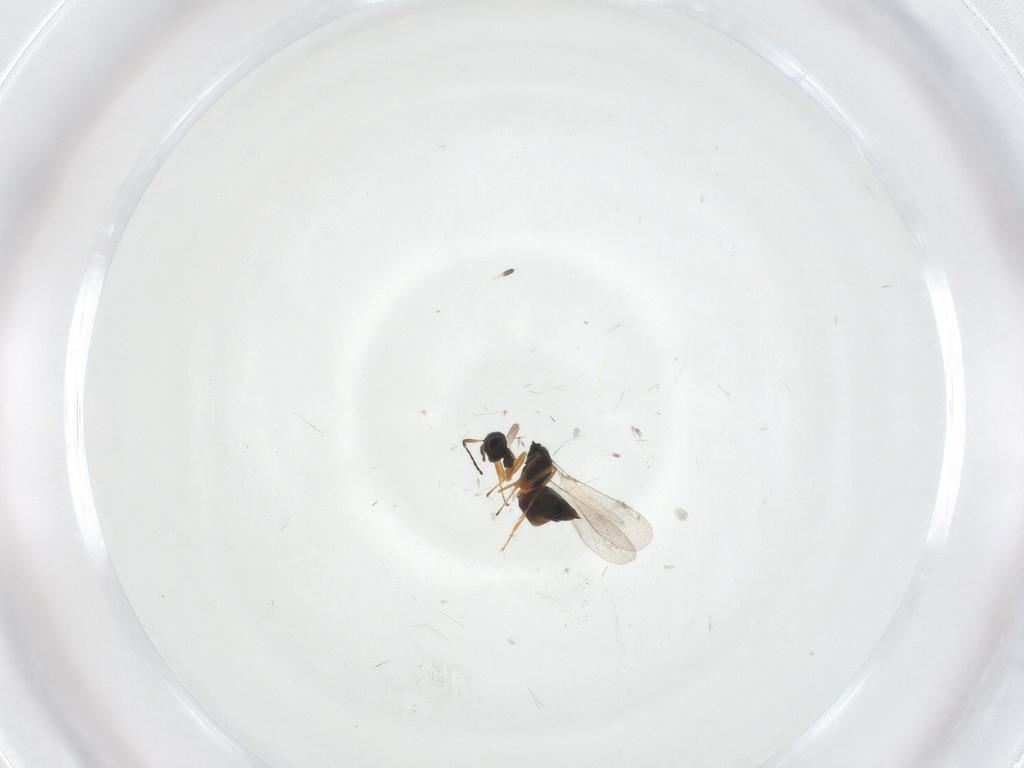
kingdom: Animalia
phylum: Arthropoda
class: Insecta
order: Hymenoptera
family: Mymaridae
